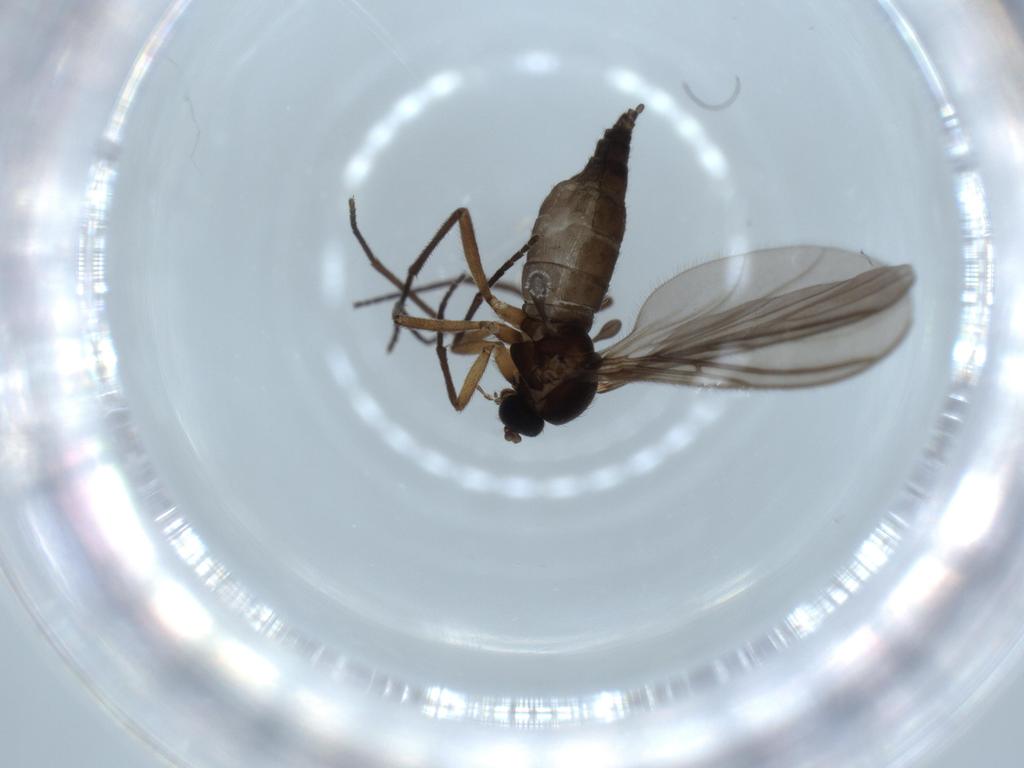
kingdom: Animalia
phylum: Arthropoda
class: Insecta
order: Diptera
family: Sciaridae
